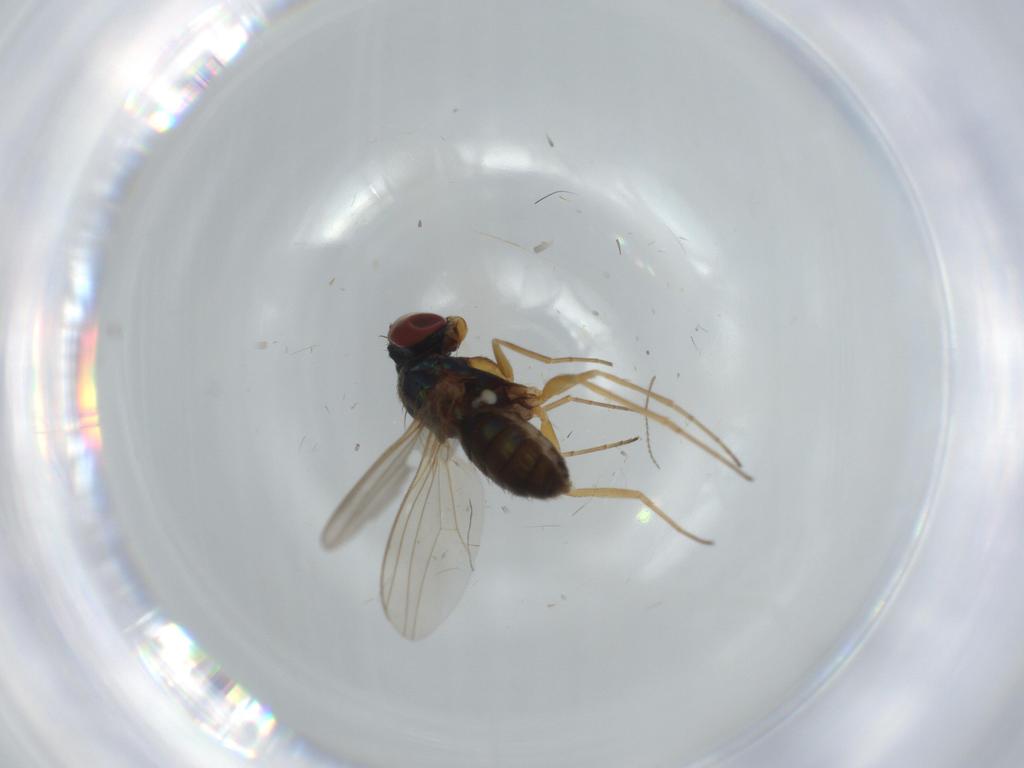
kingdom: Animalia
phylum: Arthropoda
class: Insecta
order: Diptera
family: Dolichopodidae
